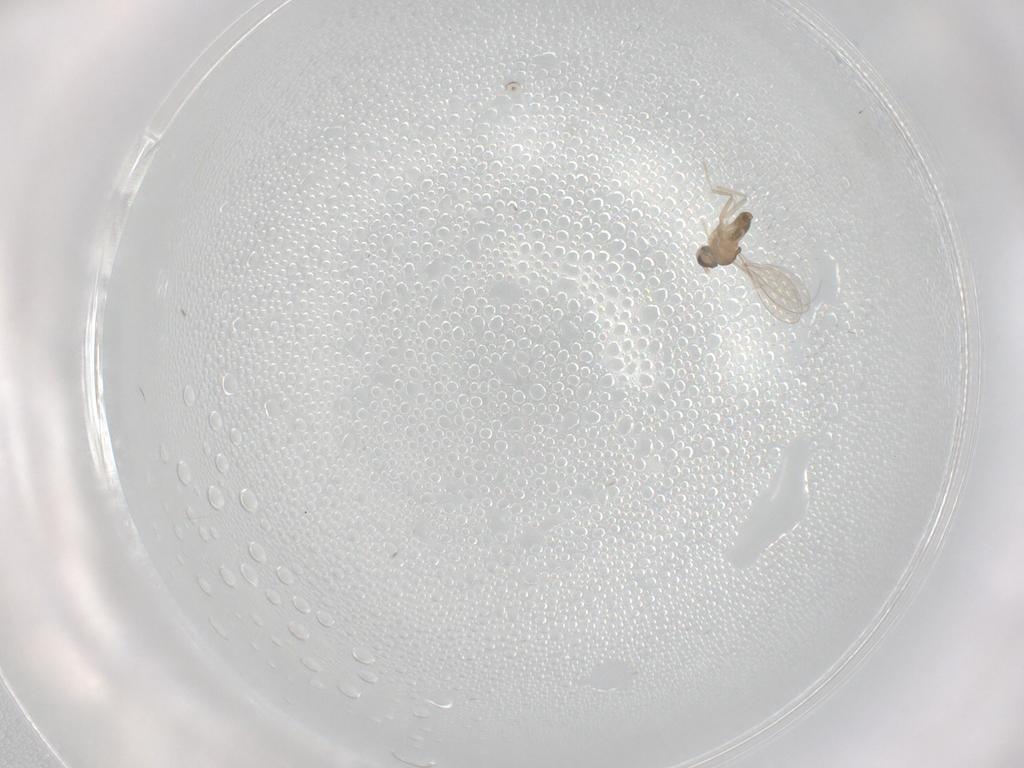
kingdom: Animalia
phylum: Arthropoda
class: Insecta
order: Diptera
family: Cecidomyiidae
